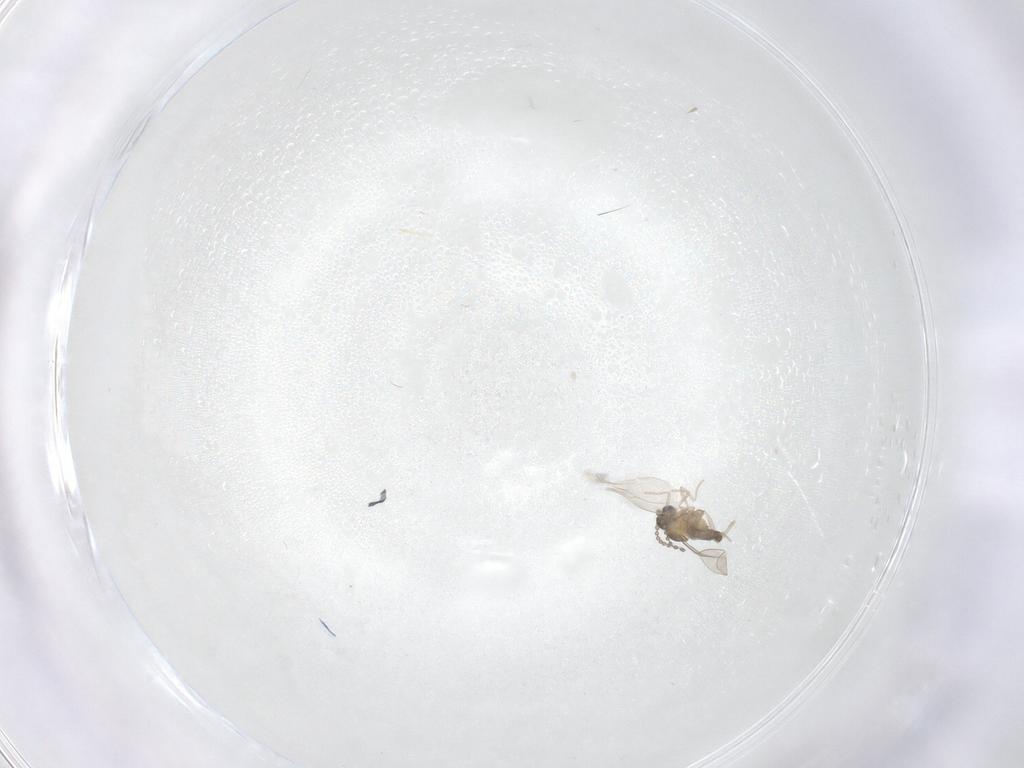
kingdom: Animalia
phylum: Arthropoda
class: Insecta
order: Diptera
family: Cecidomyiidae
